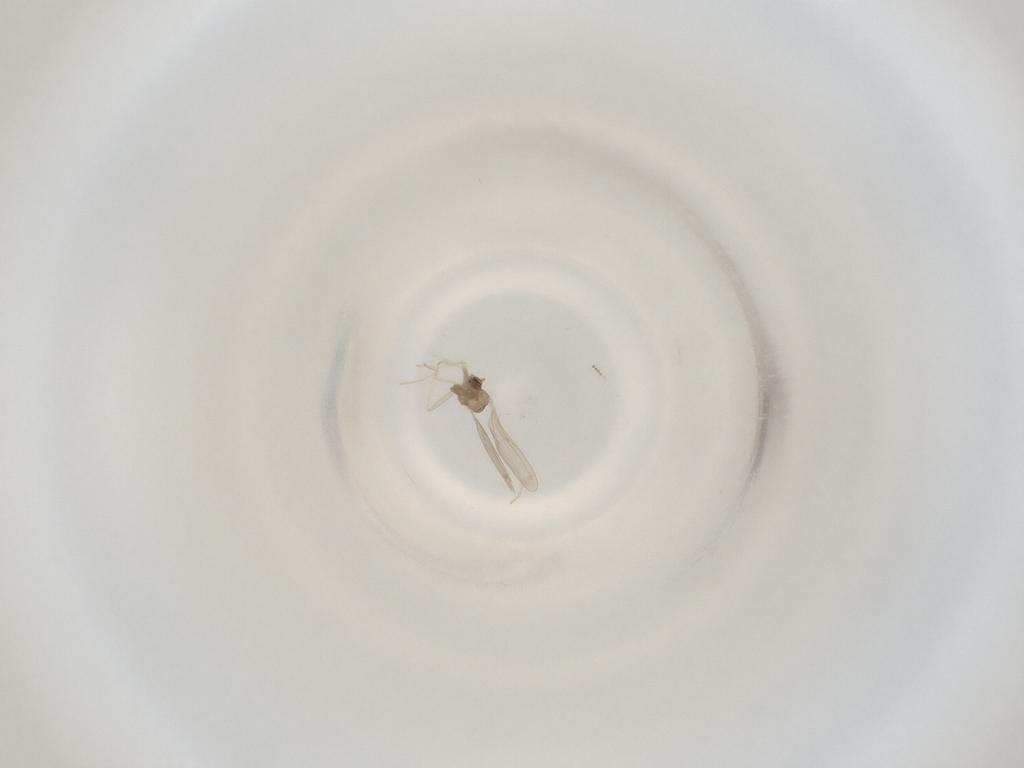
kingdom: Animalia
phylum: Arthropoda
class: Insecta
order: Diptera
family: Cecidomyiidae
